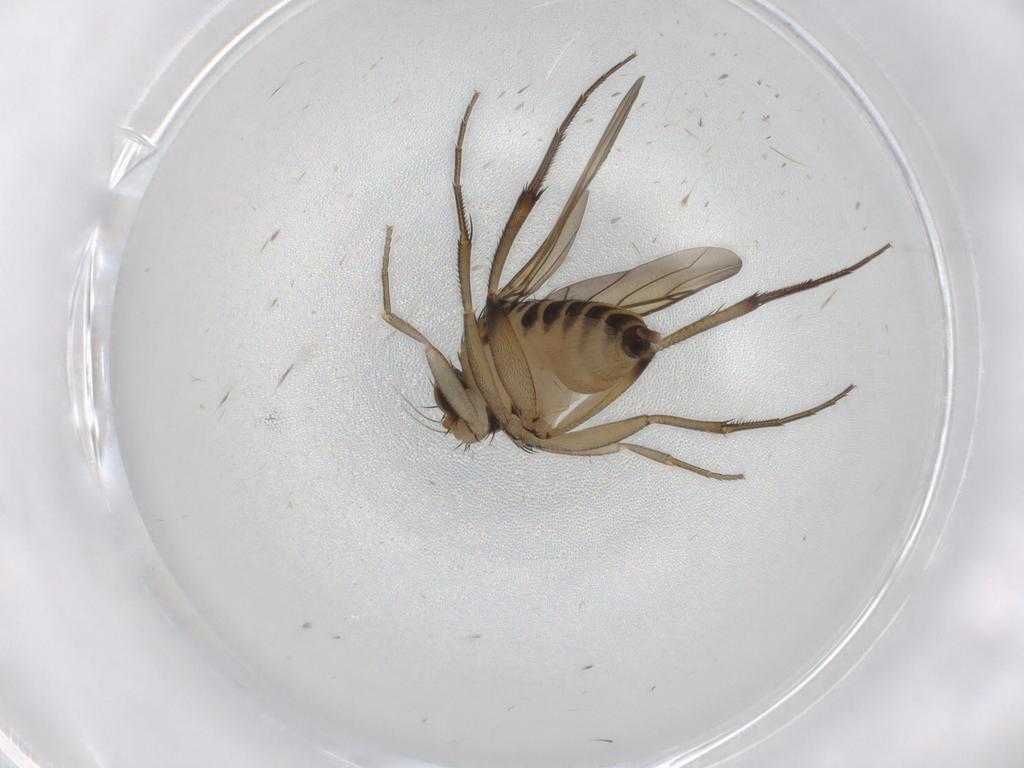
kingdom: Animalia
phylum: Arthropoda
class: Insecta
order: Diptera
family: Phoridae
